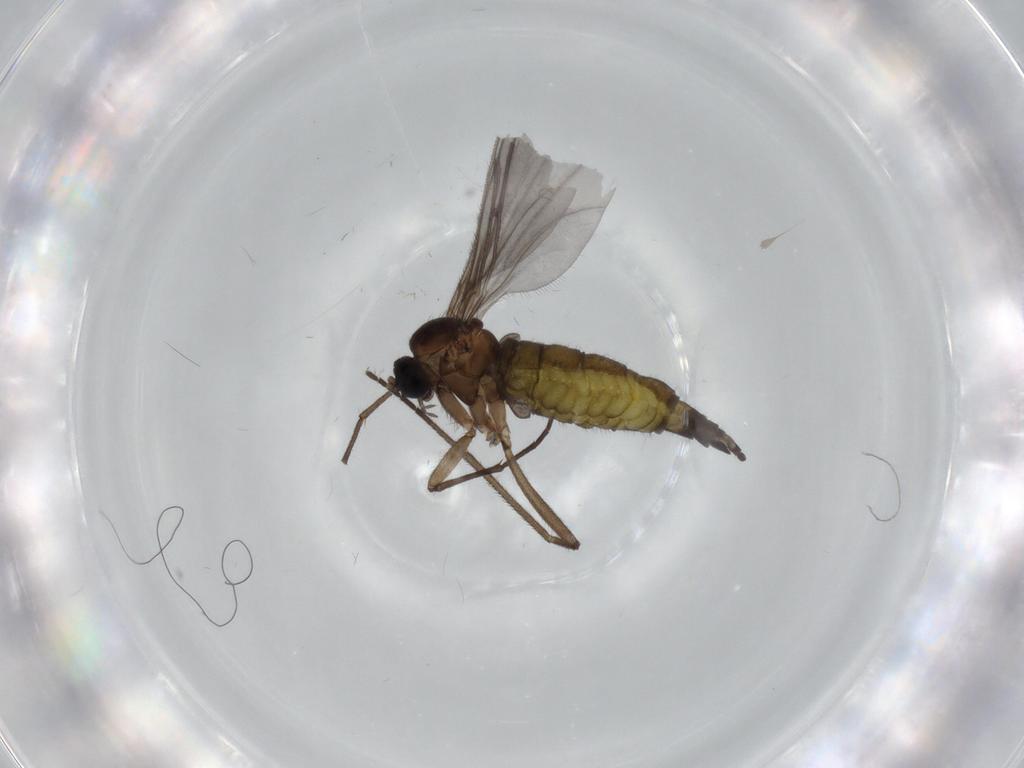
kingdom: Animalia
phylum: Arthropoda
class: Insecta
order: Diptera
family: Sciaridae
